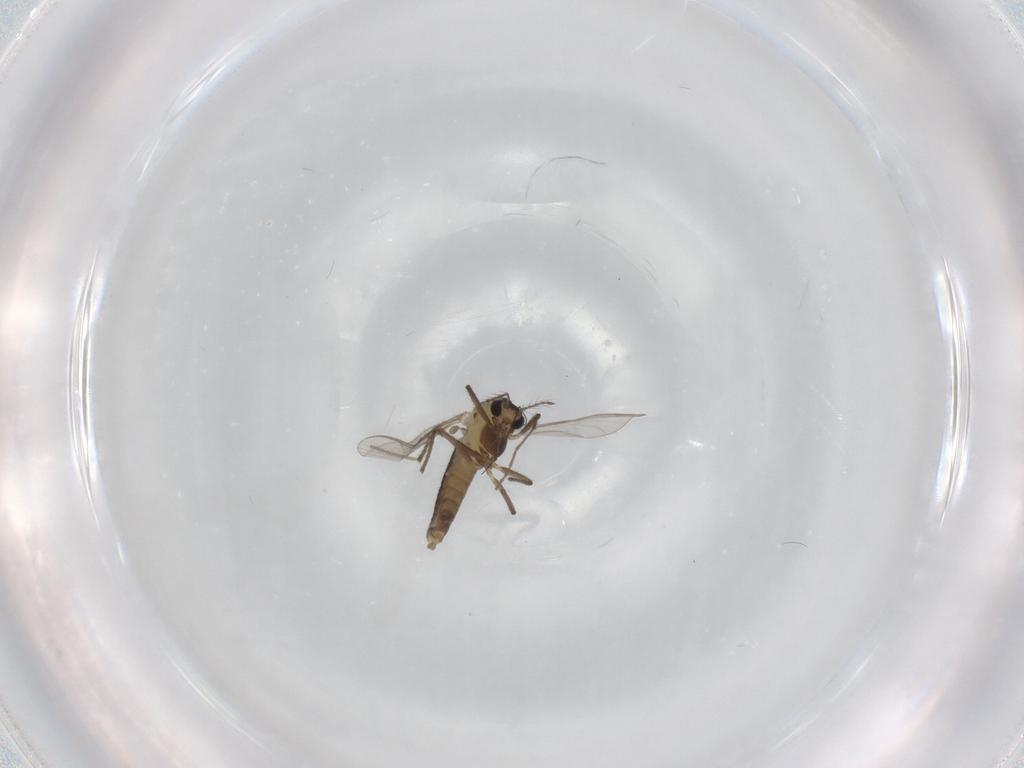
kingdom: Animalia
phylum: Arthropoda
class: Insecta
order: Diptera
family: Chironomidae
